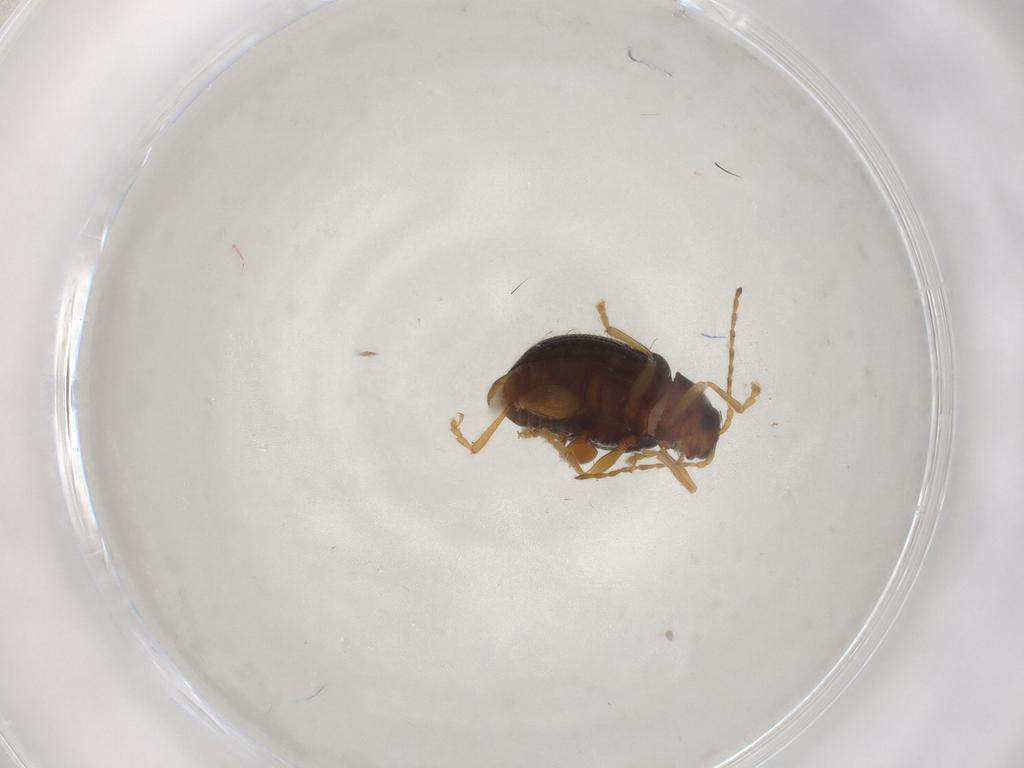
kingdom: Animalia
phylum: Arthropoda
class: Insecta
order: Coleoptera
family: Chrysomelidae
